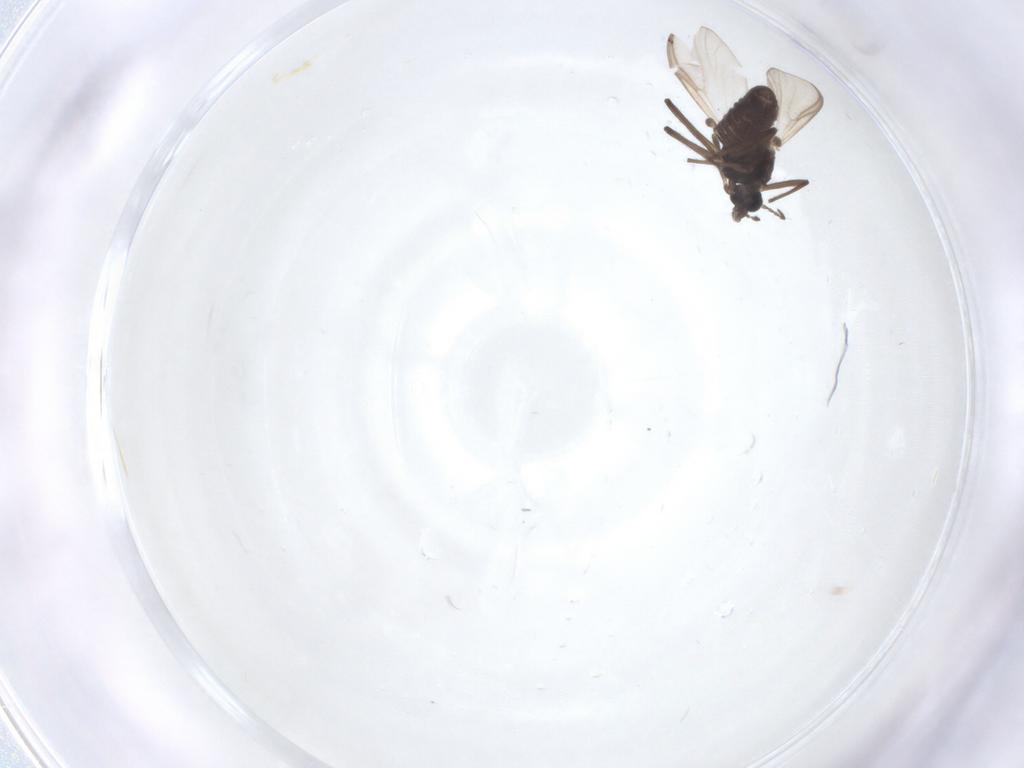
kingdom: Animalia
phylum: Arthropoda
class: Insecta
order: Diptera
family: Chironomidae
